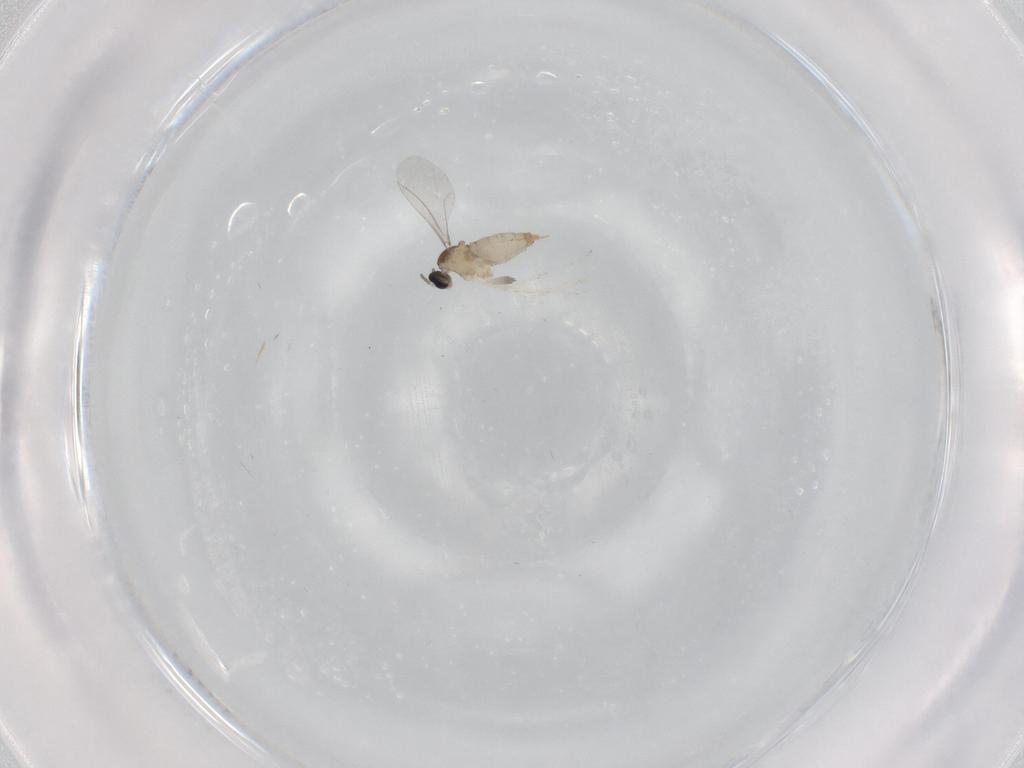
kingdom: Animalia
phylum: Arthropoda
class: Insecta
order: Diptera
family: Cecidomyiidae
